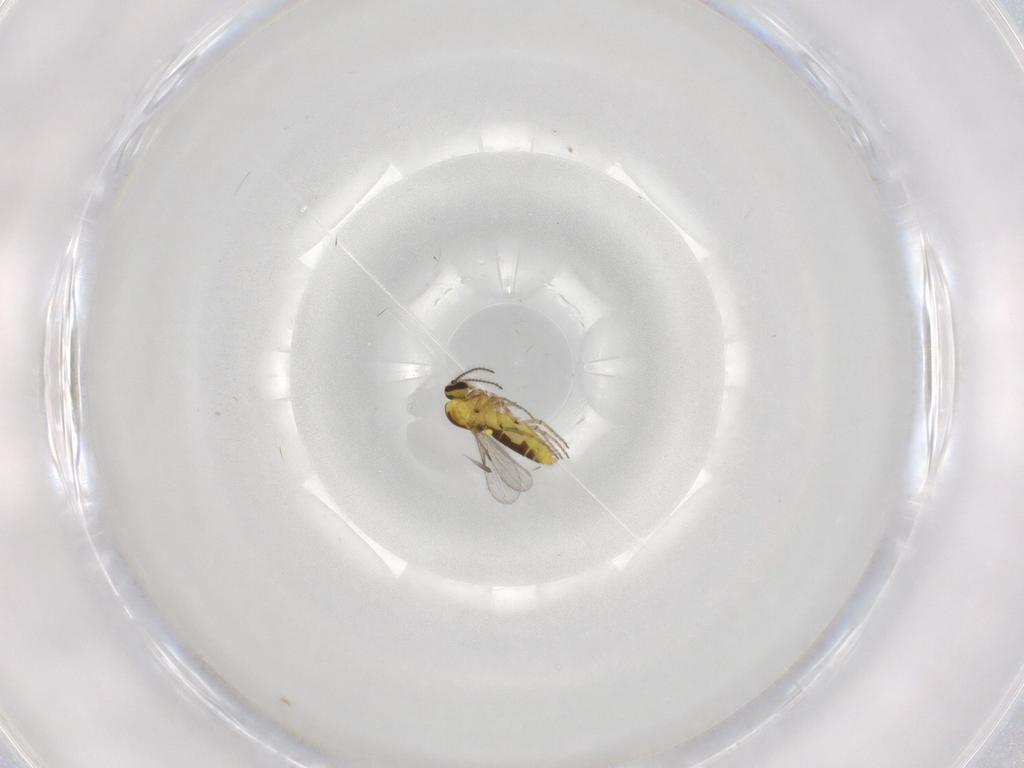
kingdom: Animalia
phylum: Arthropoda
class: Insecta
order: Diptera
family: Ceratopogonidae
